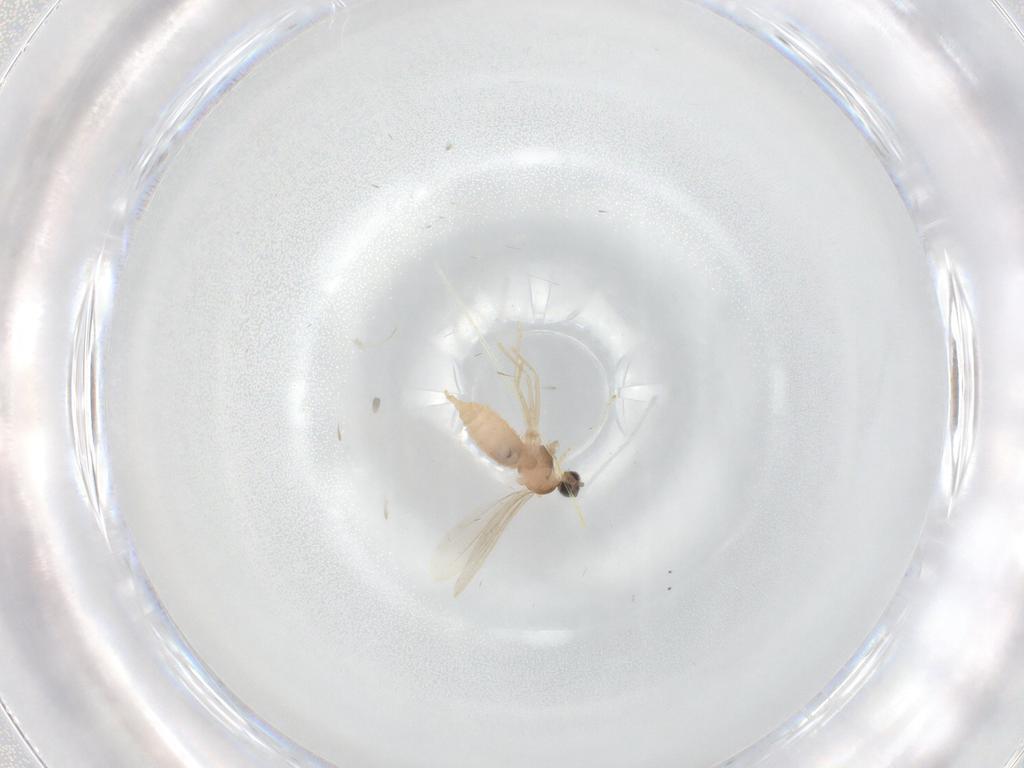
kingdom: Animalia
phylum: Arthropoda
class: Insecta
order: Diptera
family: Cecidomyiidae
